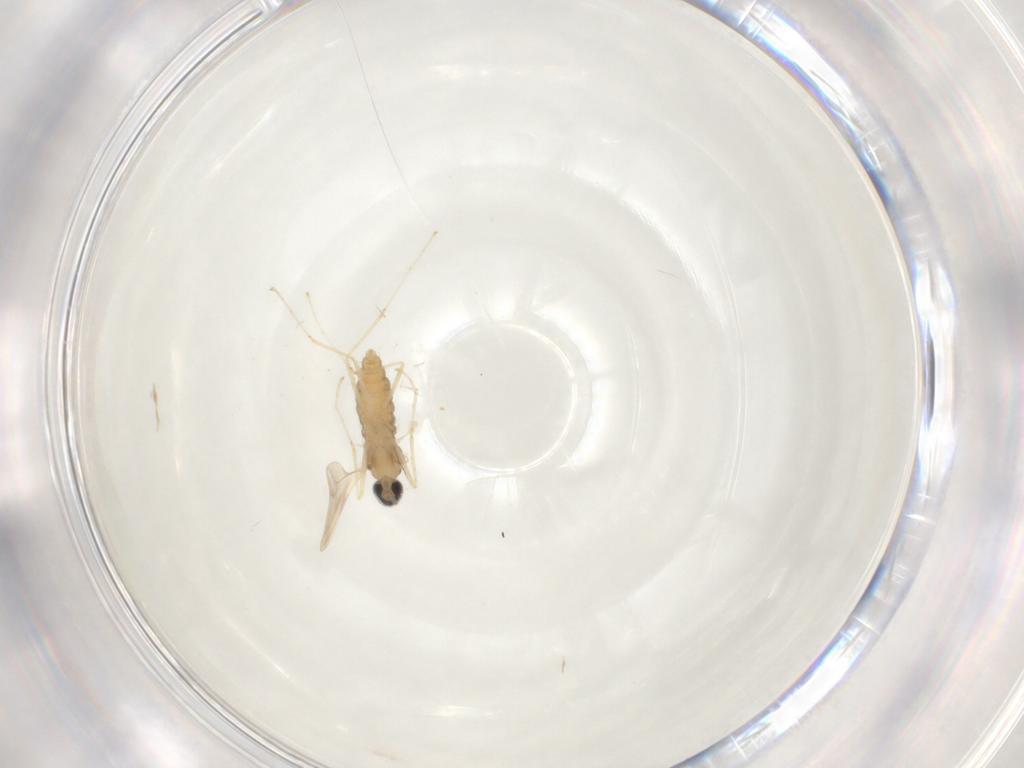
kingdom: Animalia
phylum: Arthropoda
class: Insecta
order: Diptera
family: Cecidomyiidae
